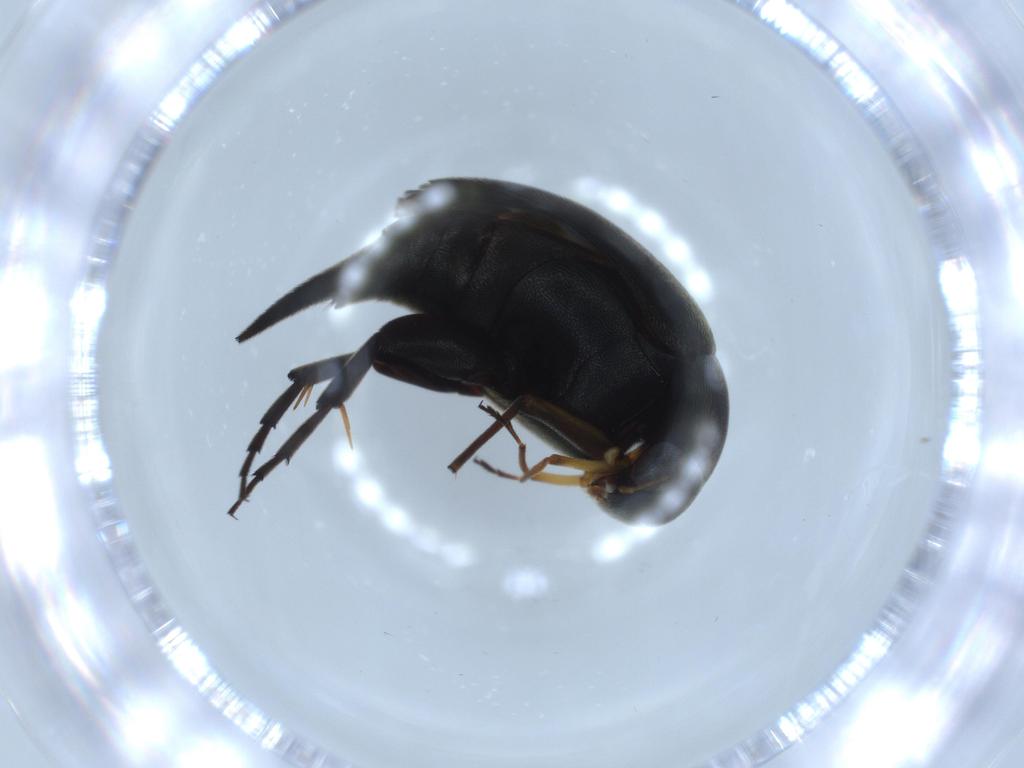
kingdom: Animalia
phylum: Arthropoda
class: Insecta
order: Coleoptera
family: Mordellidae
